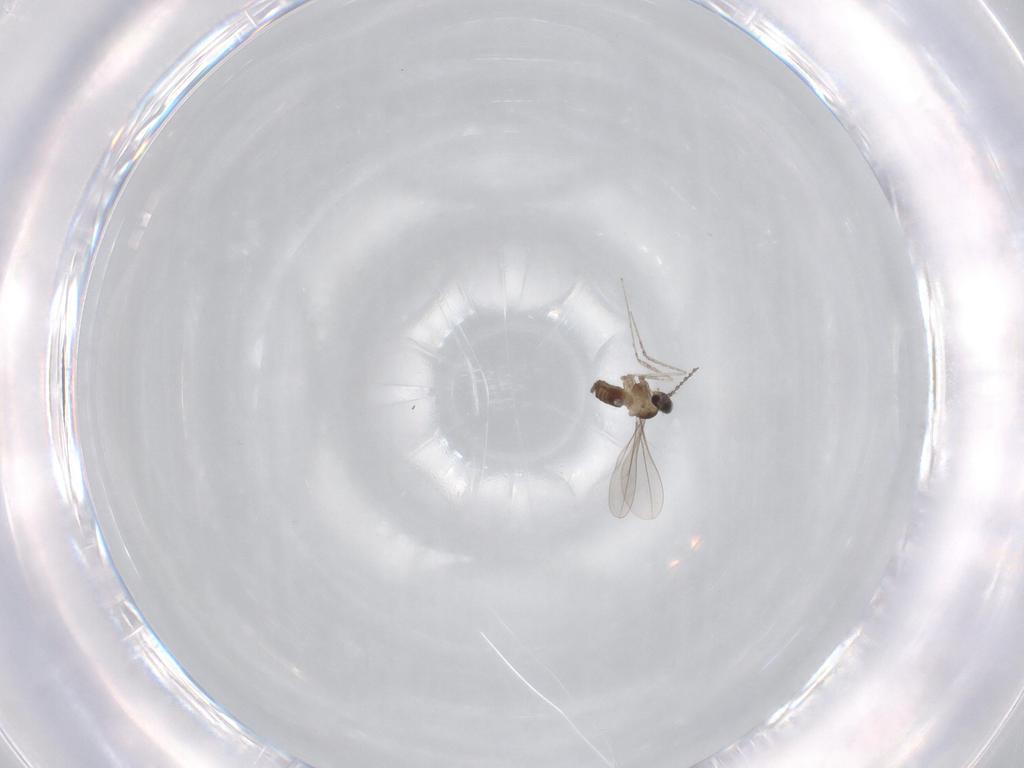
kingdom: Animalia
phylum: Arthropoda
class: Insecta
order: Diptera
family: Cecidomyiidae
